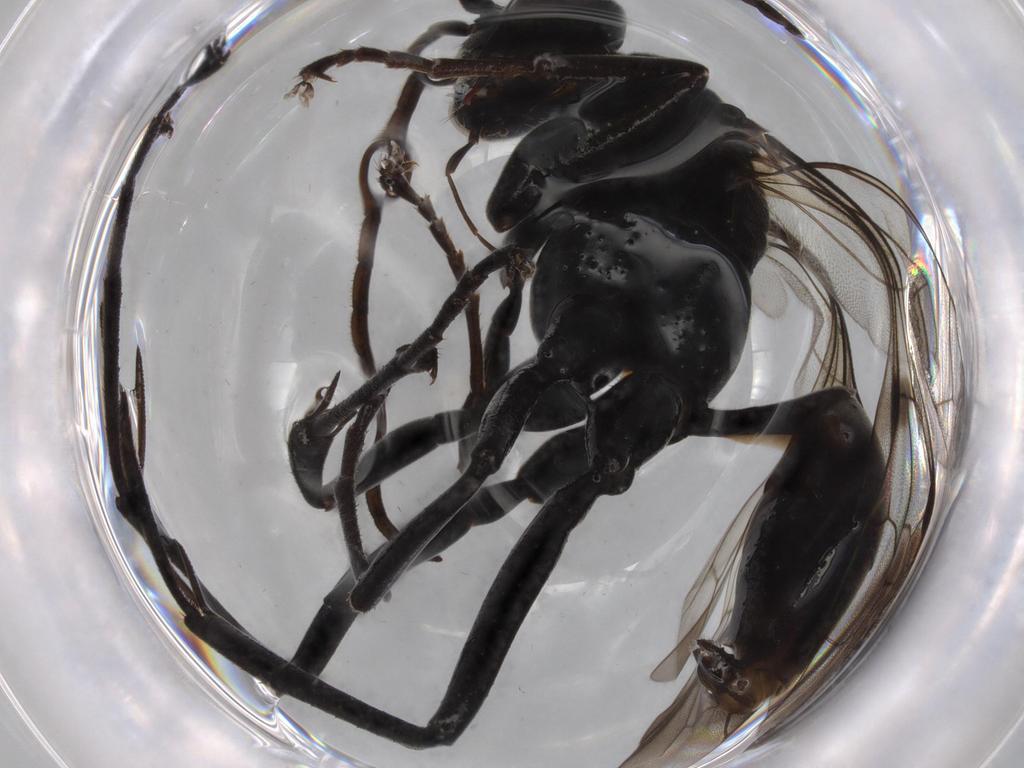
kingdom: Animalia
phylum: Arthropoda
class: Insecta
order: Hymenoptera
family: Pompilidae
